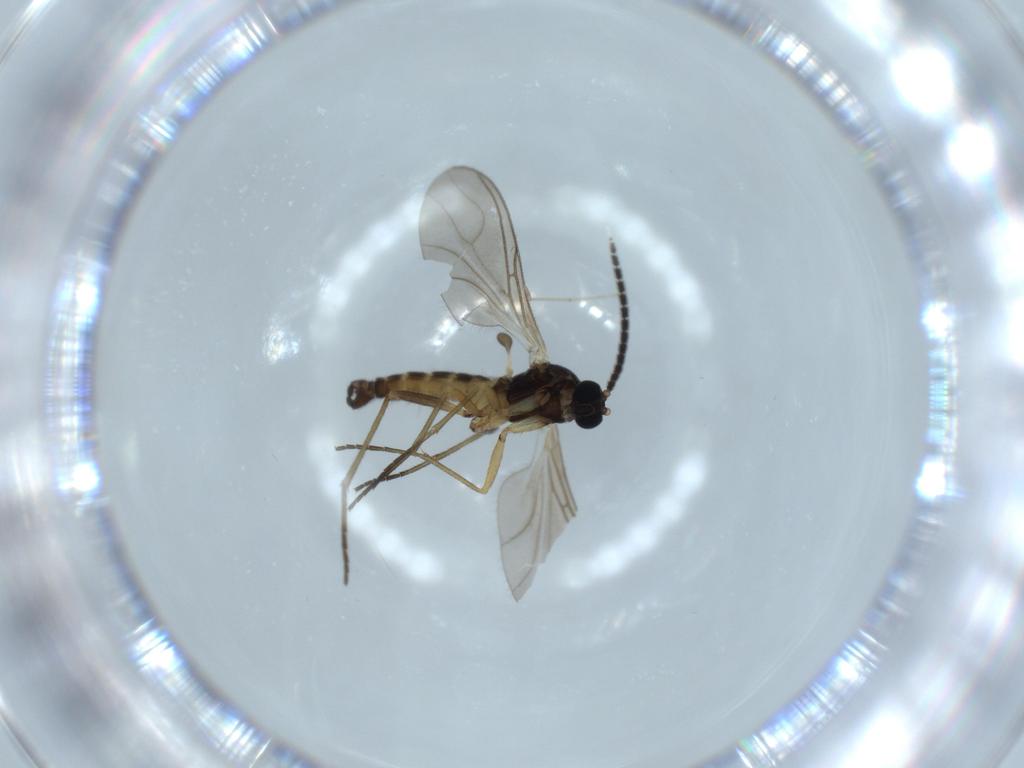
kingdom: Animalia
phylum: Arthropoda
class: Insecta
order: Diptera
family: Sciaridae
